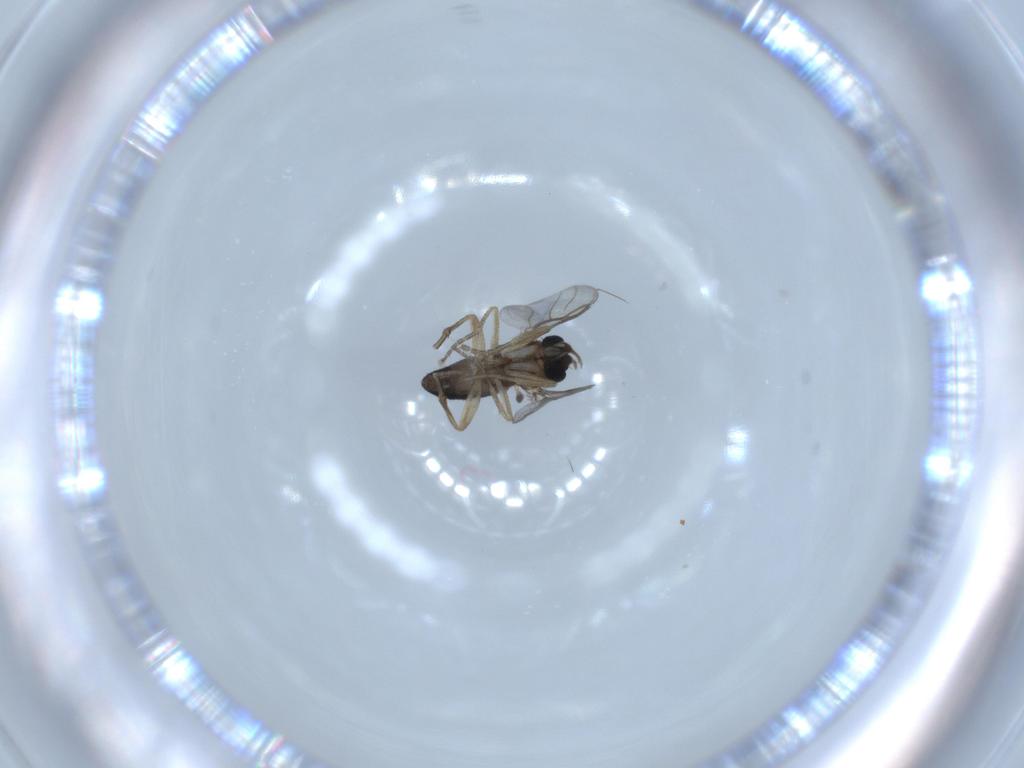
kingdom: Animalia
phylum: Arthropoda
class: Insecta
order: Diptera
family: Phoridae
